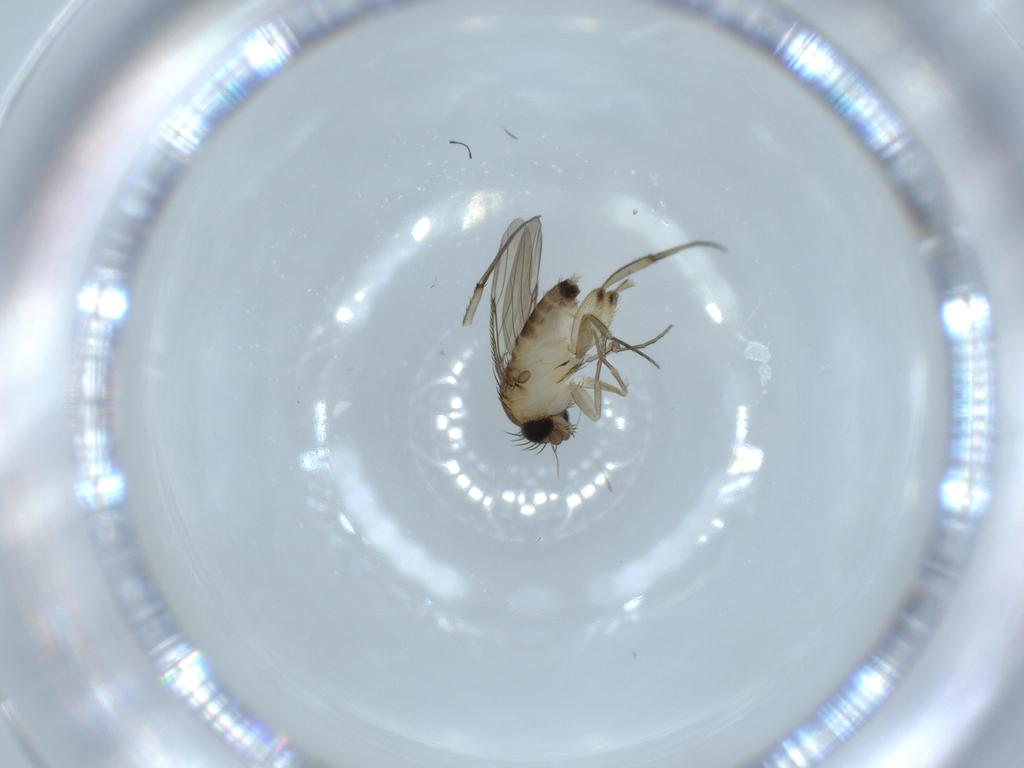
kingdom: Animalia
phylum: Arthropoda
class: Insecta
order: Diptera
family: Phoridae
